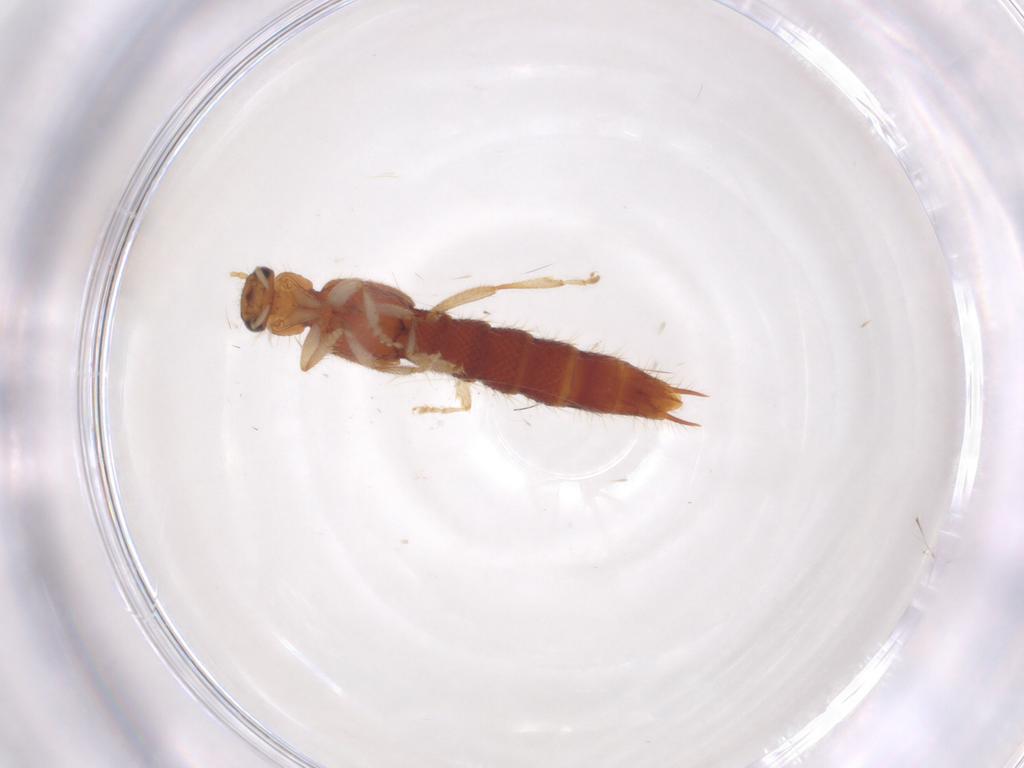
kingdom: Animalia
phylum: Arthropoda
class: Insecta
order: Coleoptera
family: Staphylinidae
